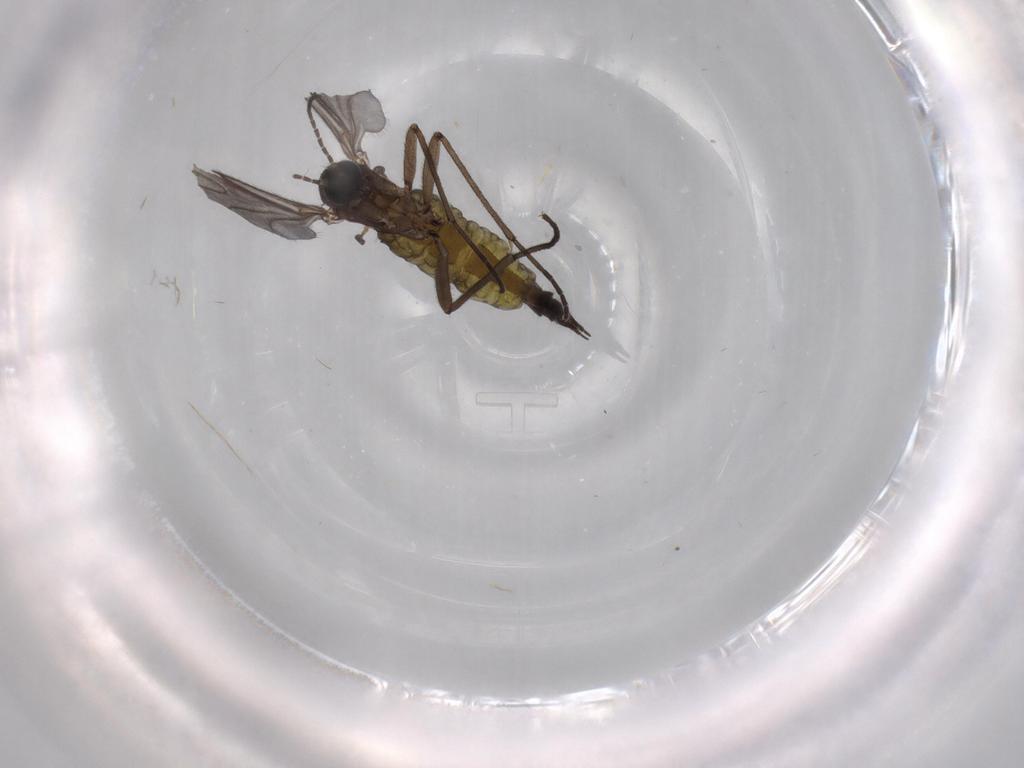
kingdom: Animalia
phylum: Arthropoda
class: Insecta
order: Diptera
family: Sciaridae
